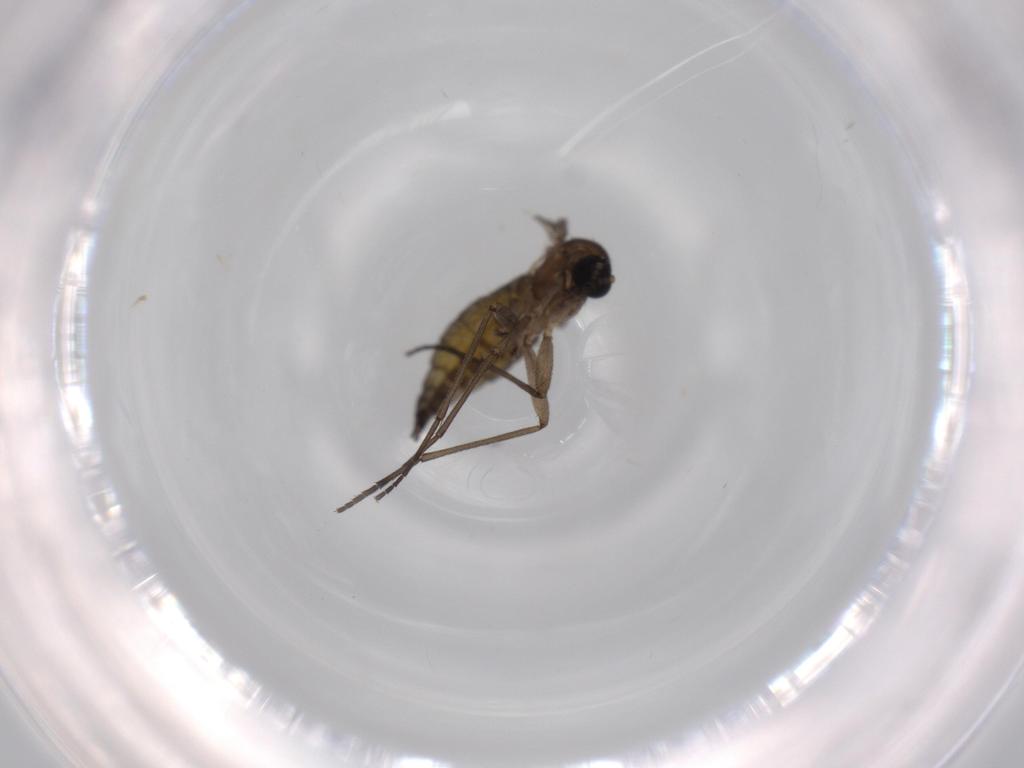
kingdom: Animalia
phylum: Arthropoda
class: Insecta
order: Diptera
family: Sciaridae
